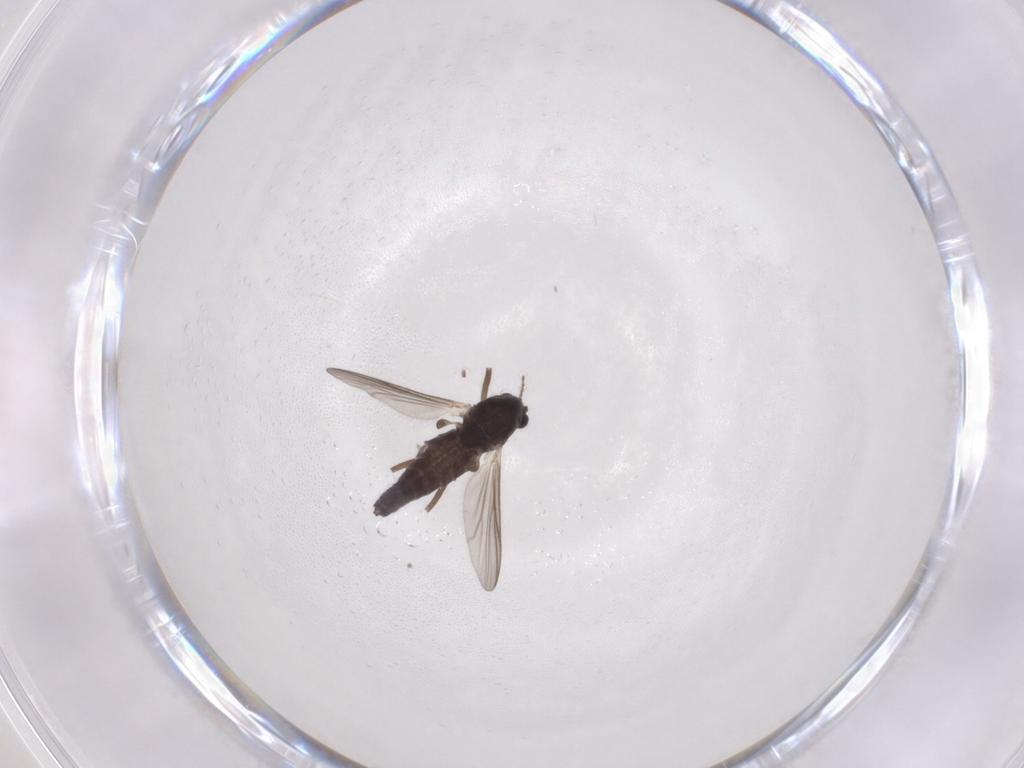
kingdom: Animalia
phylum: Arthropoda
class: Insecta
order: Diptera
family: Chironomidae
